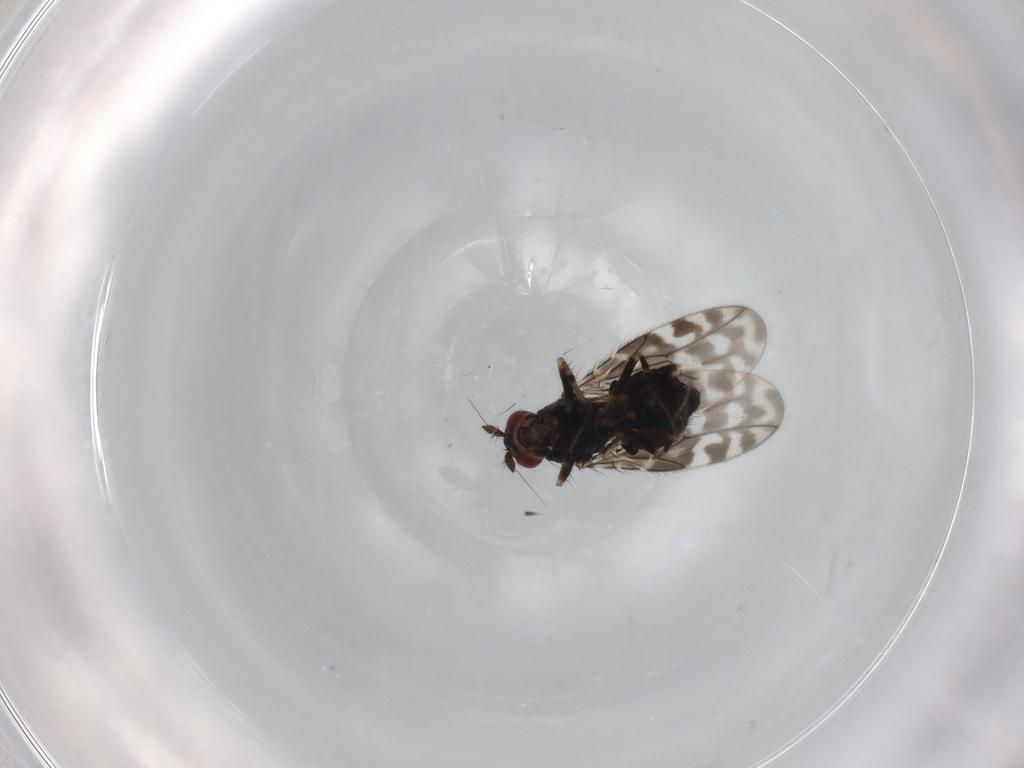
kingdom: Animalia
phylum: Arthropoda
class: Insecta
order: Diptera
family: Sphaeroceridae
